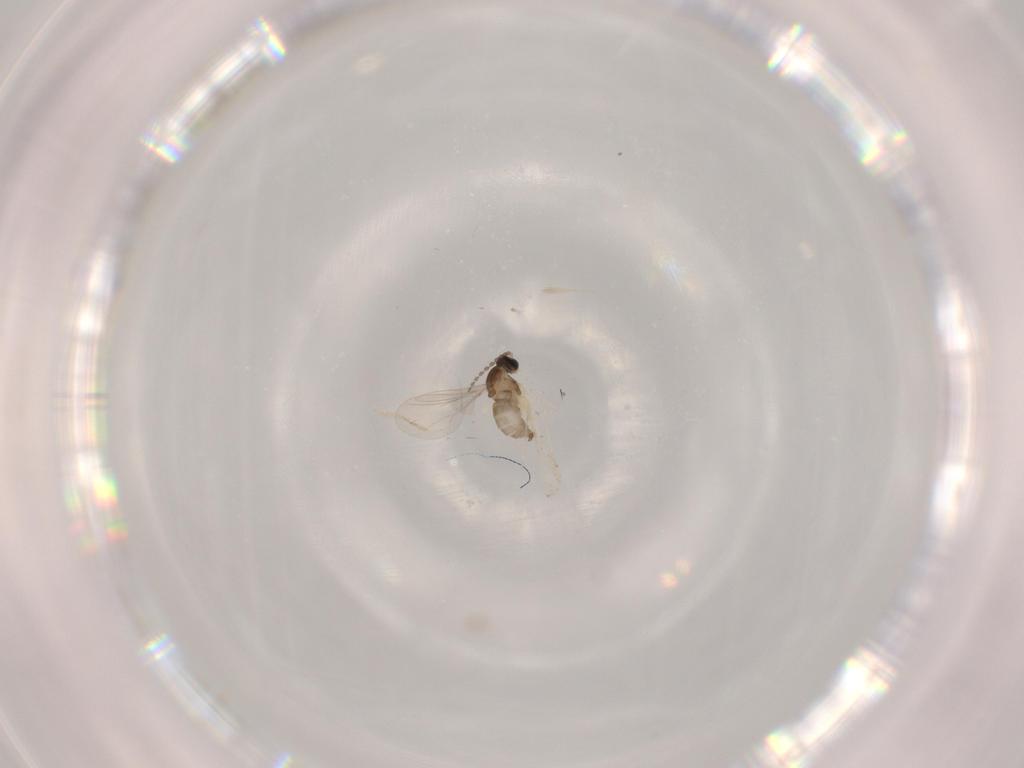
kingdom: Animalia
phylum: Arthropoda
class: Insecta
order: Diptera
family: Cecidomyiidae
